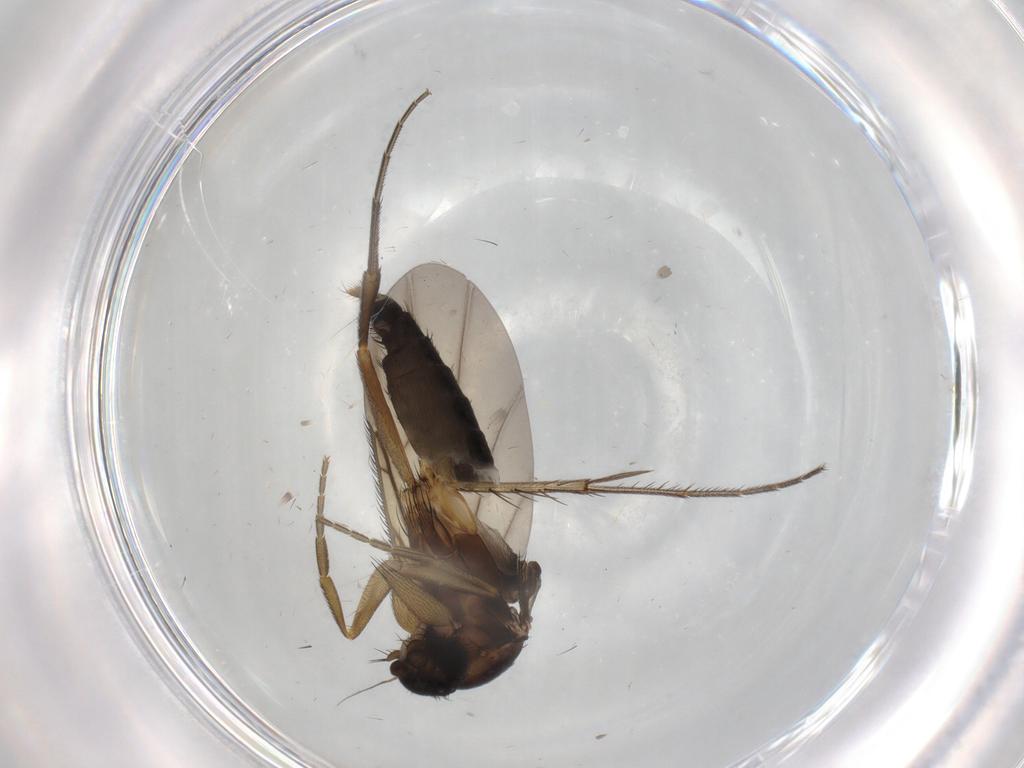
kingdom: Animalia
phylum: Arthropoda
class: Insecta
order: Diptera
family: Phoridae
